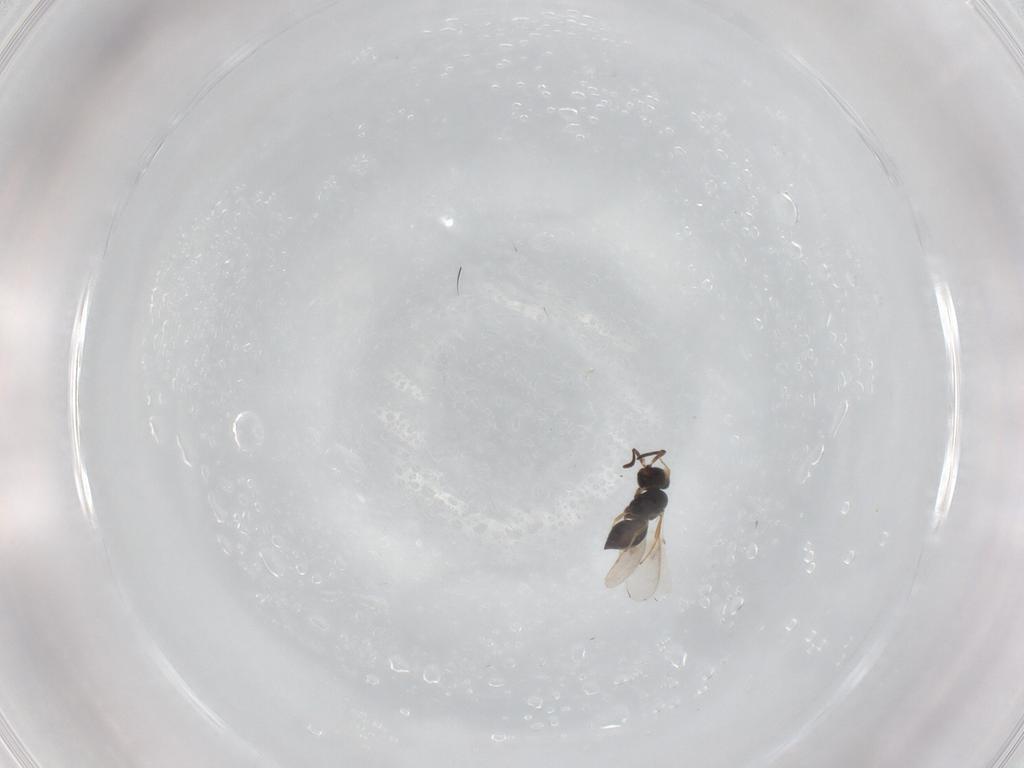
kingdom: Animalia
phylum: Arthropoda
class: Insecta
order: Hymenoptera
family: Scelionidae
